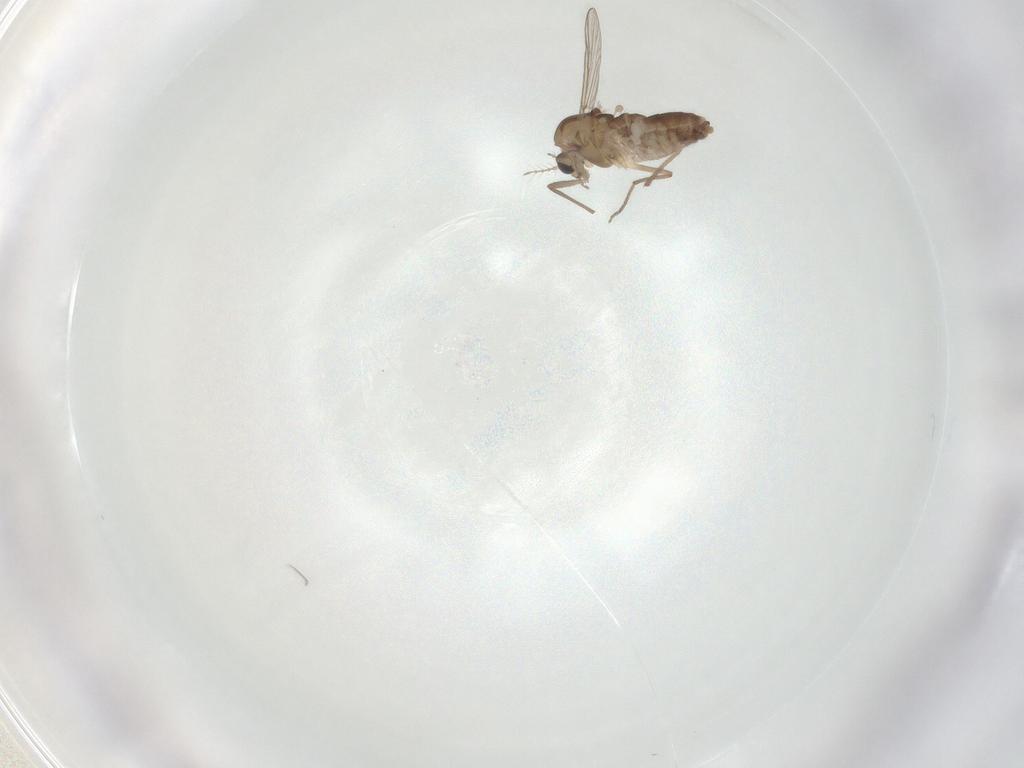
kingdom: Animalia
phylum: Arthropoda
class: Insecta
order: Diptera
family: Chironomidae
